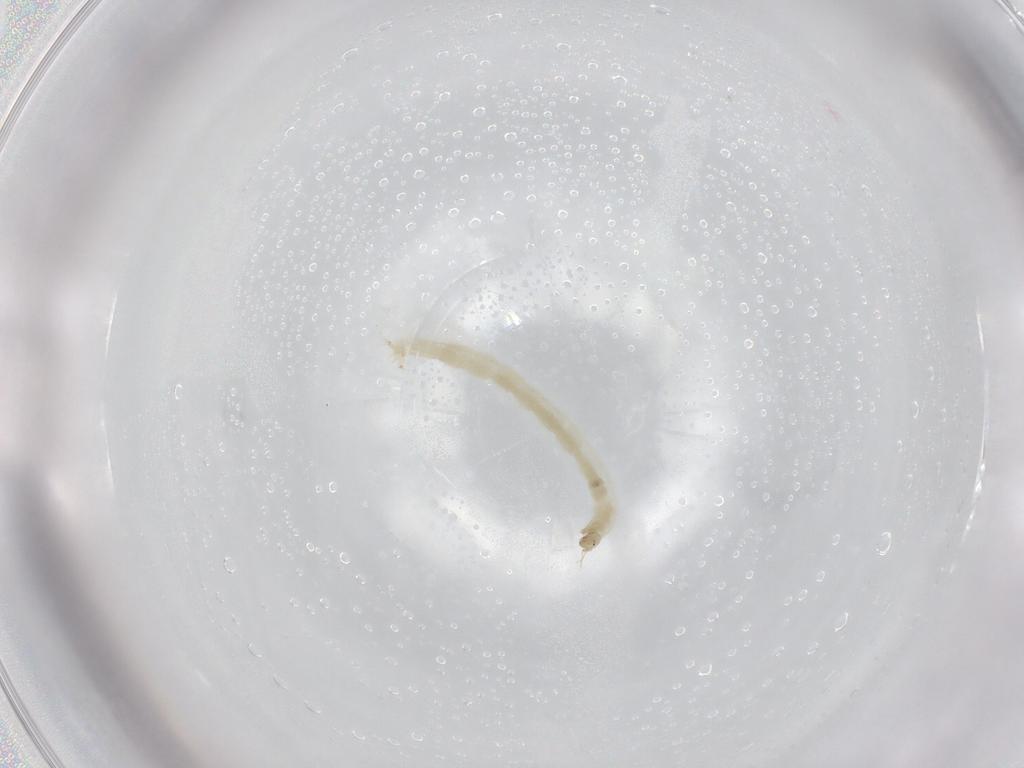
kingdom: Animalia
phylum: Arthropoda
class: Insecta
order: Diptera
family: Chironomidae
